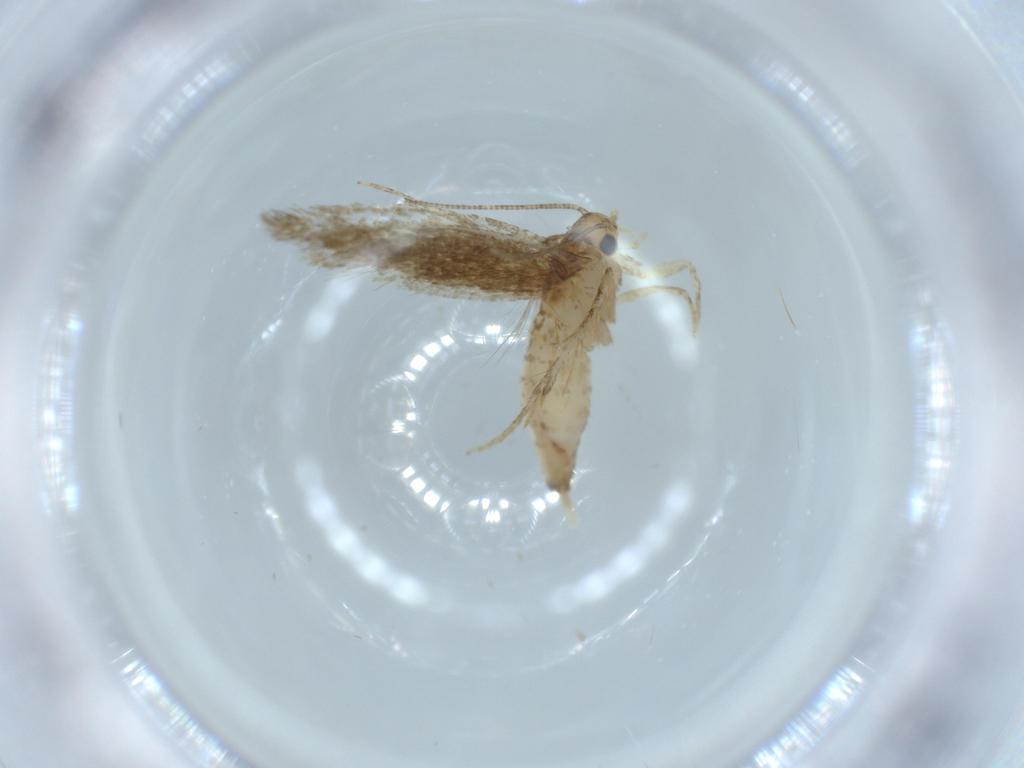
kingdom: Animalia
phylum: Arthropoda
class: Insecta
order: Lepidoptera
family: Tineidae
